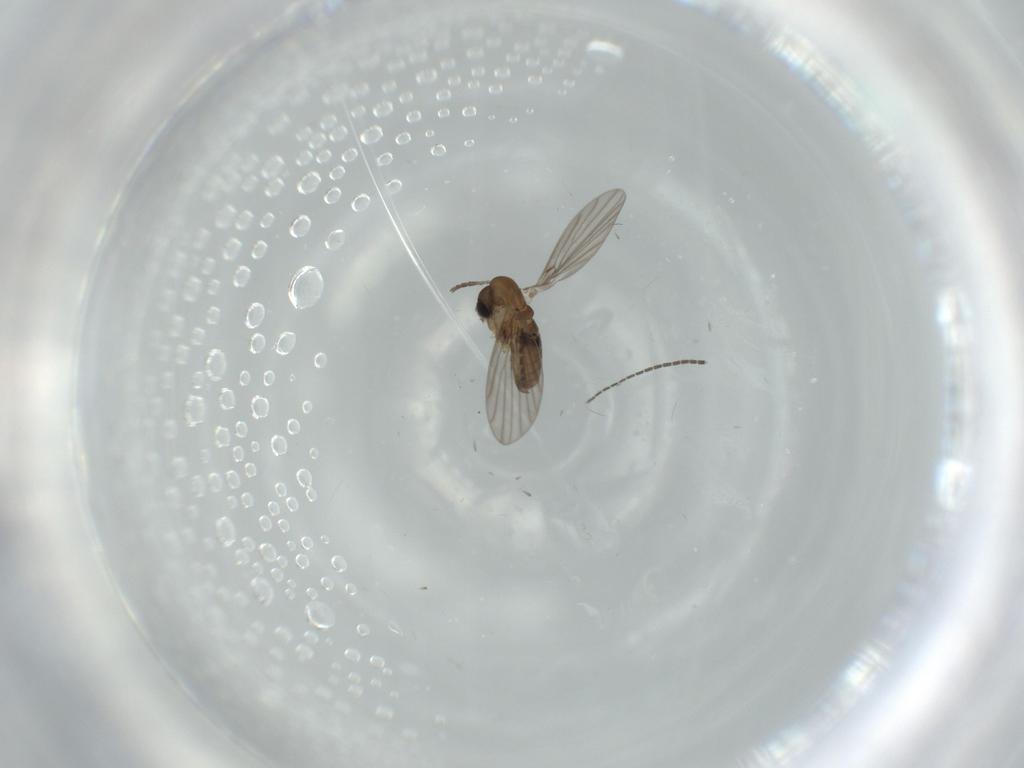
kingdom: Animalia
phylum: Arthropoda
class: Insecta
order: Diptera
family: Psychodidae
